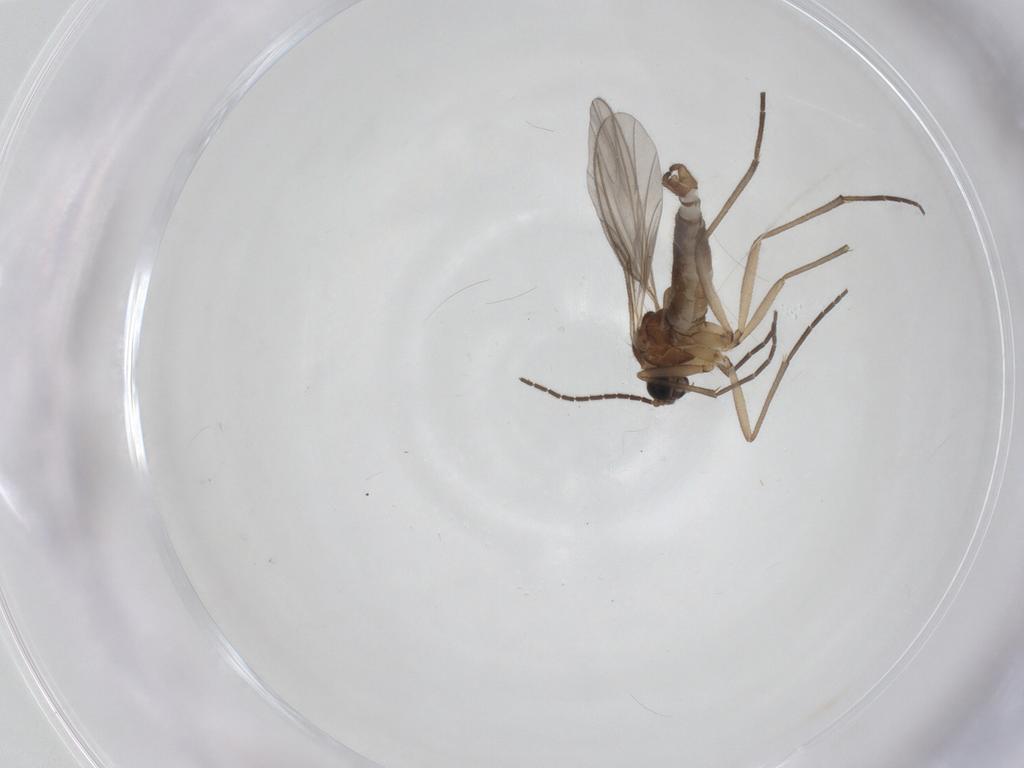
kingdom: Animalia
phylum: Arthropoda
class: Insecta
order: Diptera
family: Sciaridae
